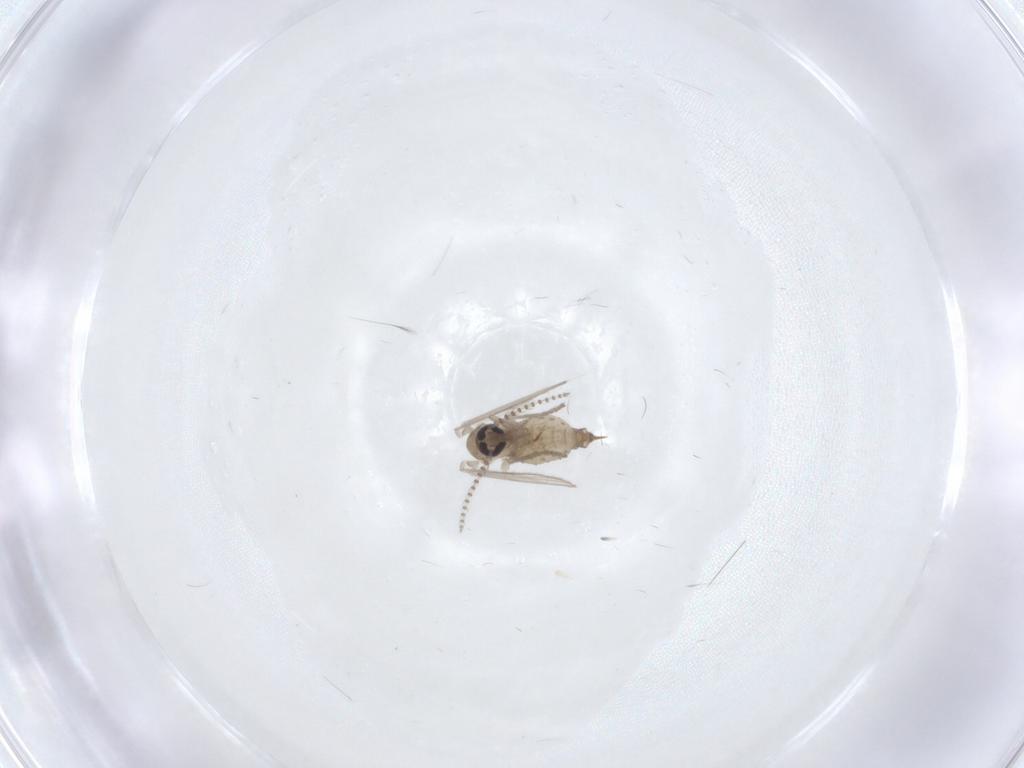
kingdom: Animalia
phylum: Arthropoda
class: Insecta
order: Diptera
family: Psychodidae
